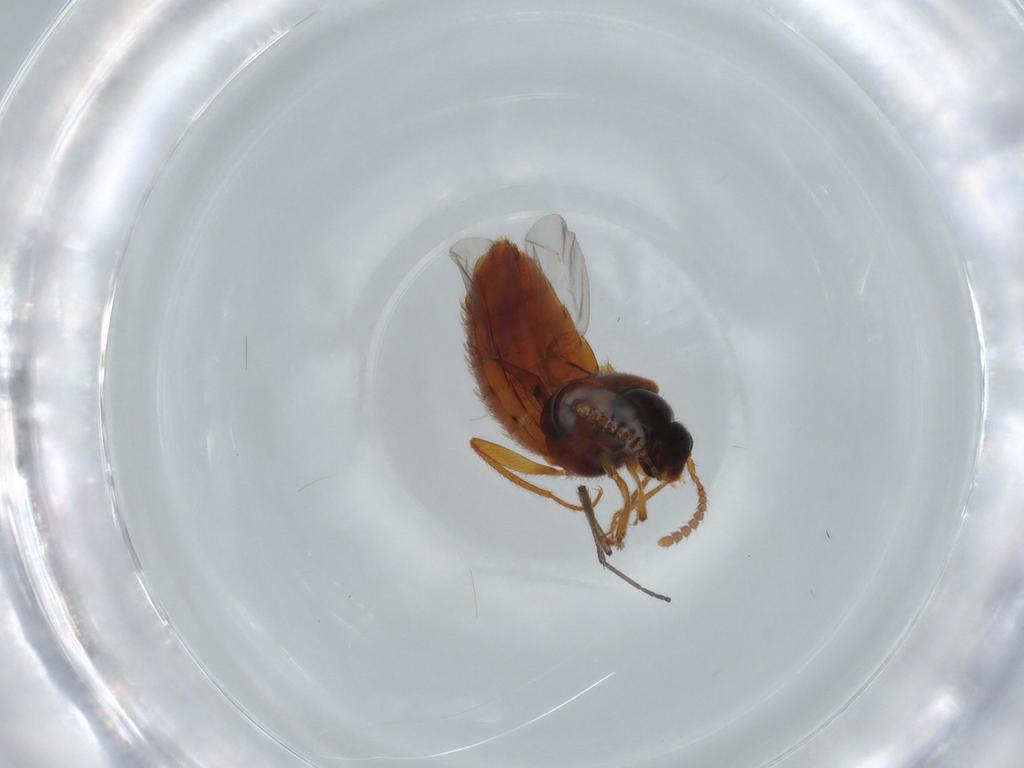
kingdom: Animalia
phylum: Arthropoda
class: Insecta
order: Coleoptera
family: Staphylinidae
